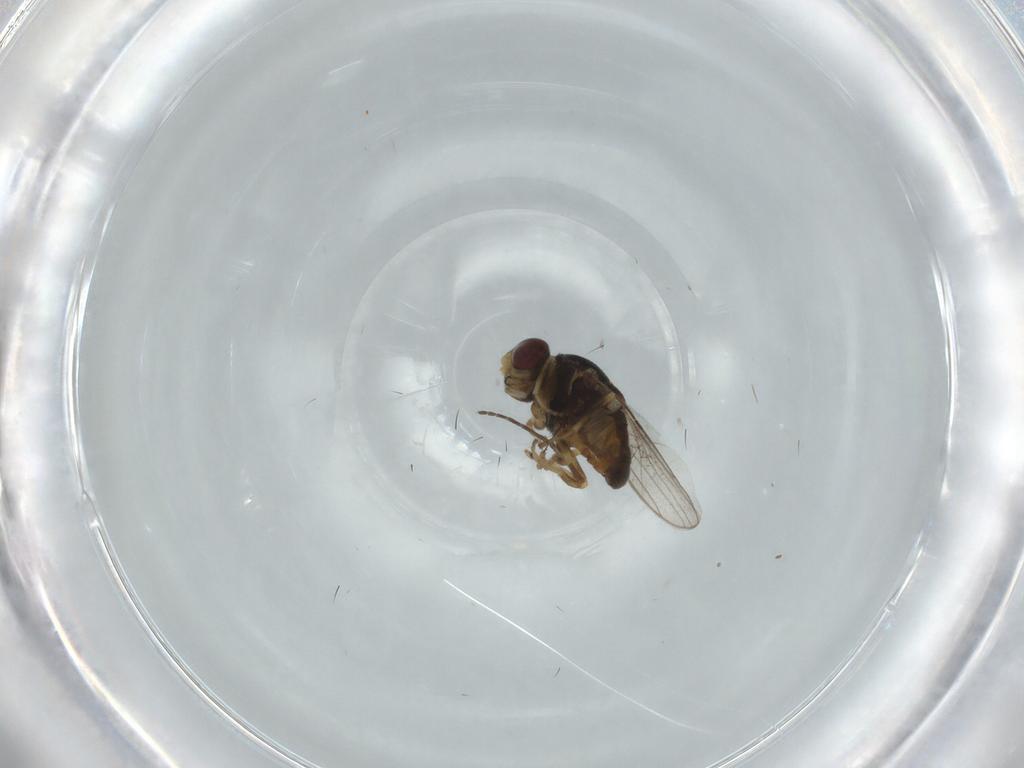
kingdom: Animalia
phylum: Arthropoda
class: Insecta
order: Diptera
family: Chloropidae
